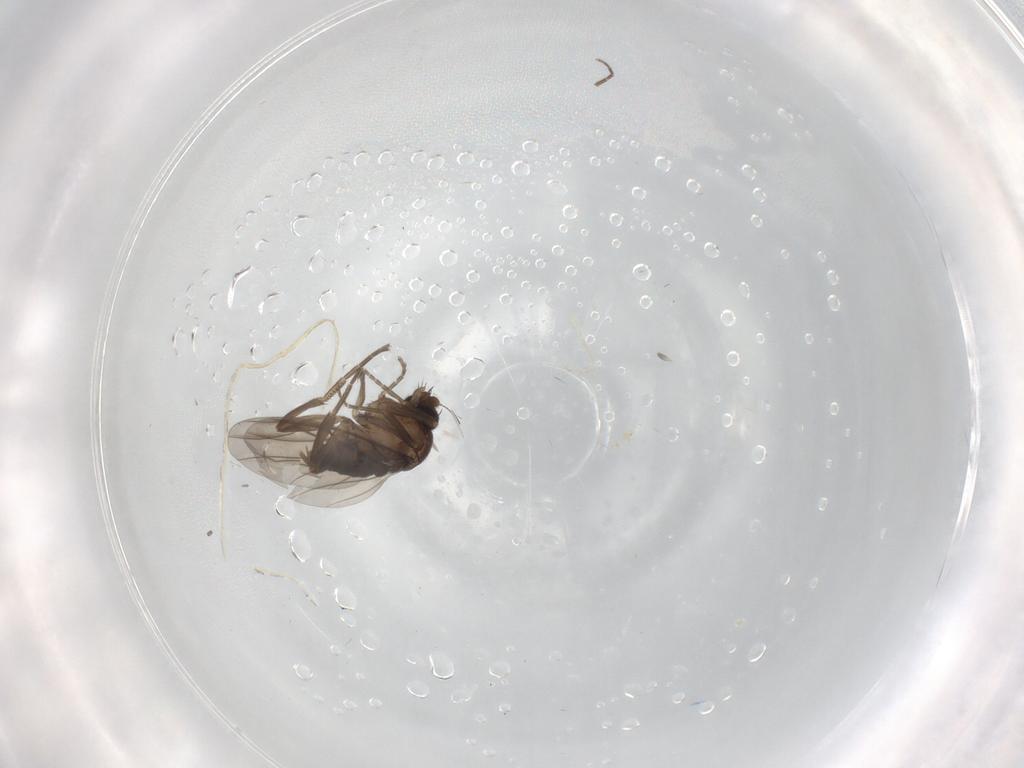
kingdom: Animalia
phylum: Arthropoda
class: Insecta
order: Diptera
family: Phoridae
